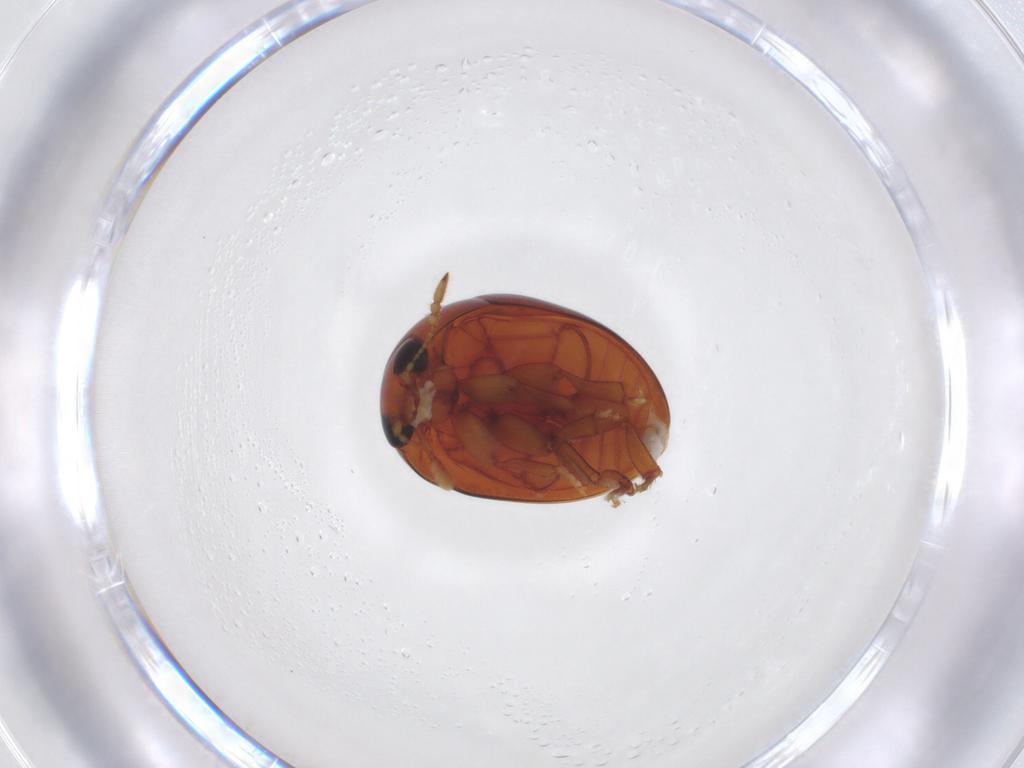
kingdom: Animalia
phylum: Arthropoda
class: Insecta
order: Coleoptera
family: Phalacridae
